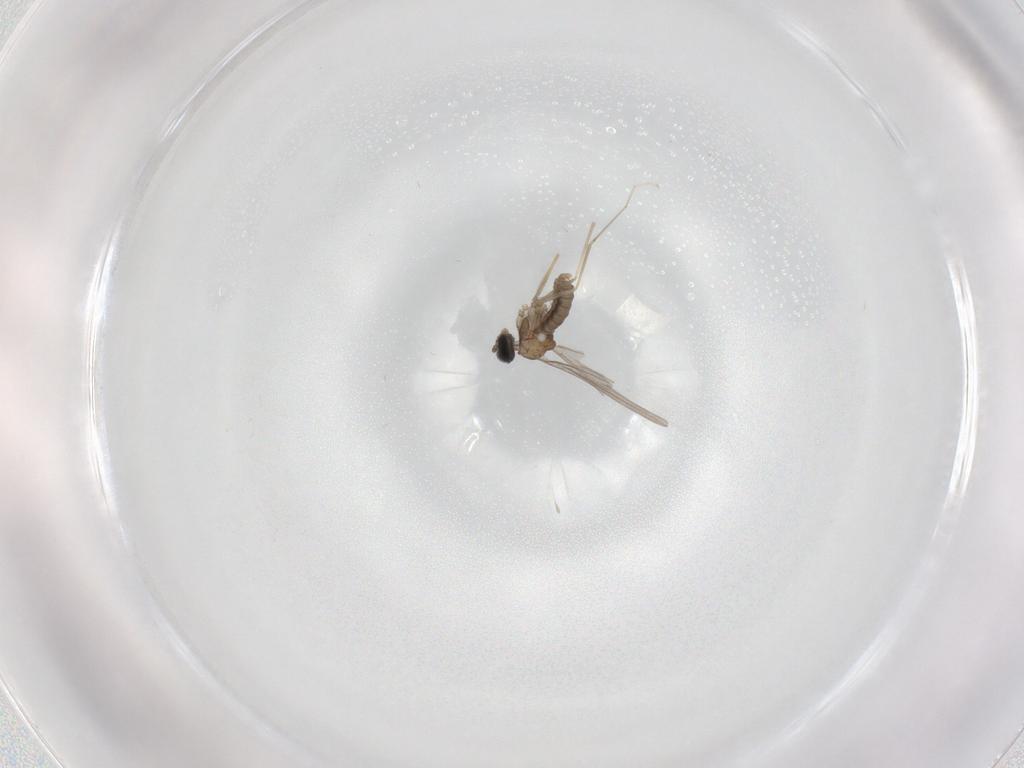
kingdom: Animalia
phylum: Arthropoda
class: Insecta
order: Diptera
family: Cecidomyiidae
